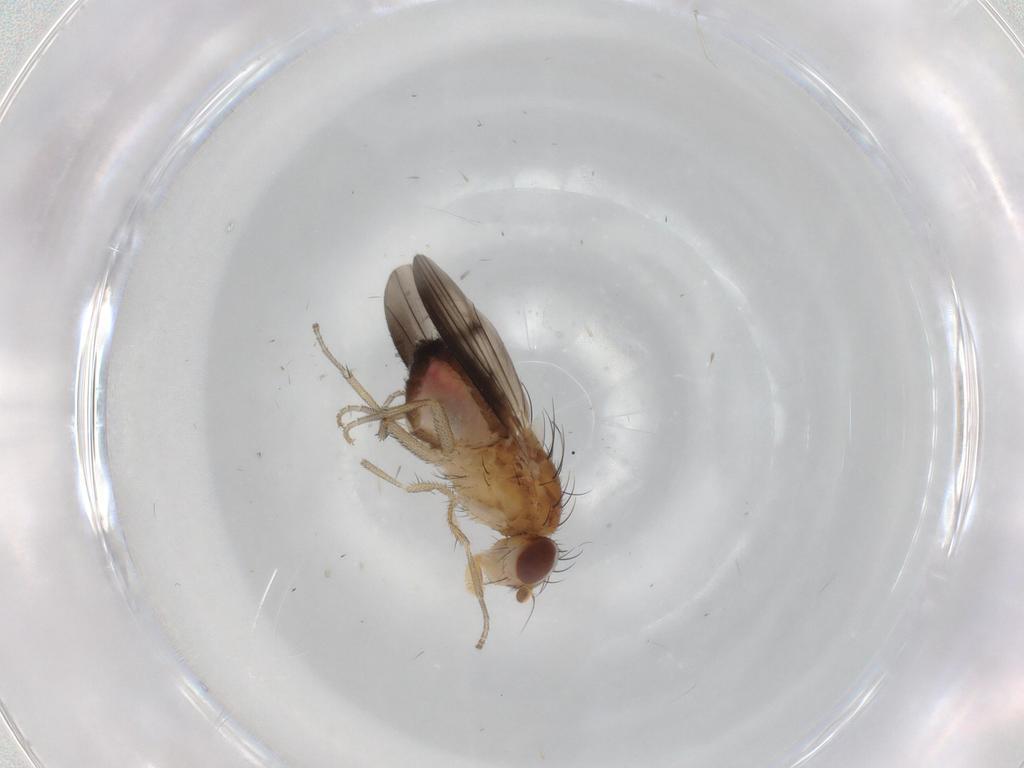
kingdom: Animalia
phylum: Arthropoda
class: Insecta
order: Diptera
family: Heleomyzidae
